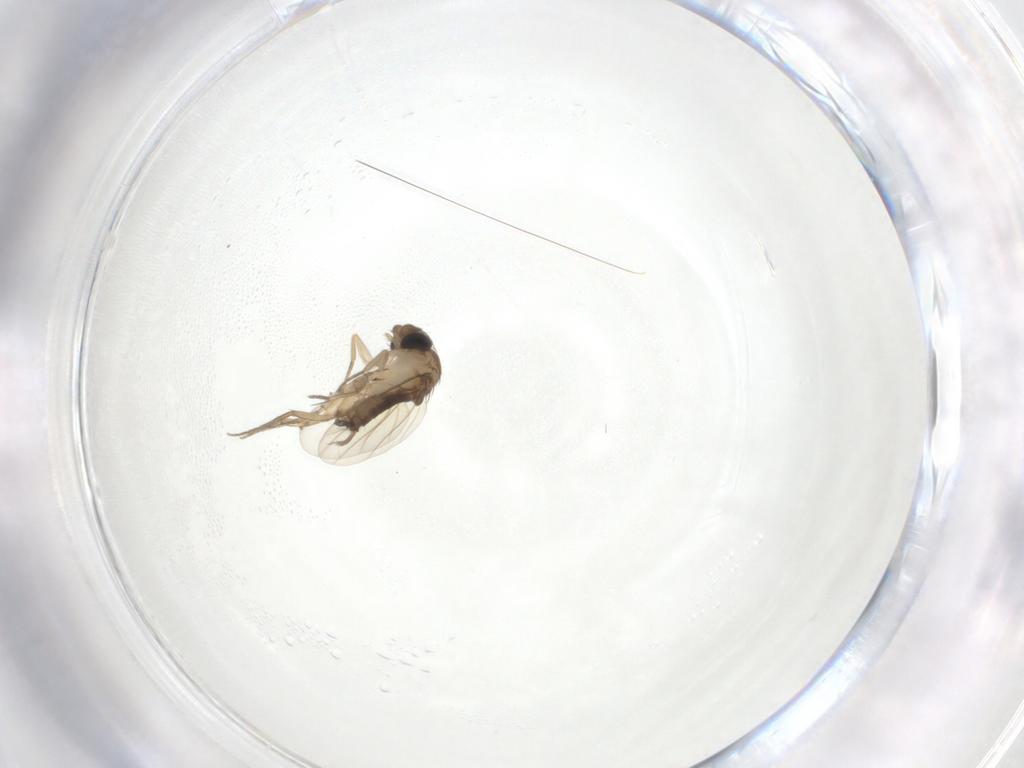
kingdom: Animalia
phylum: Arthropoda
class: Insecta
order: Diptera
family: Phoridae
